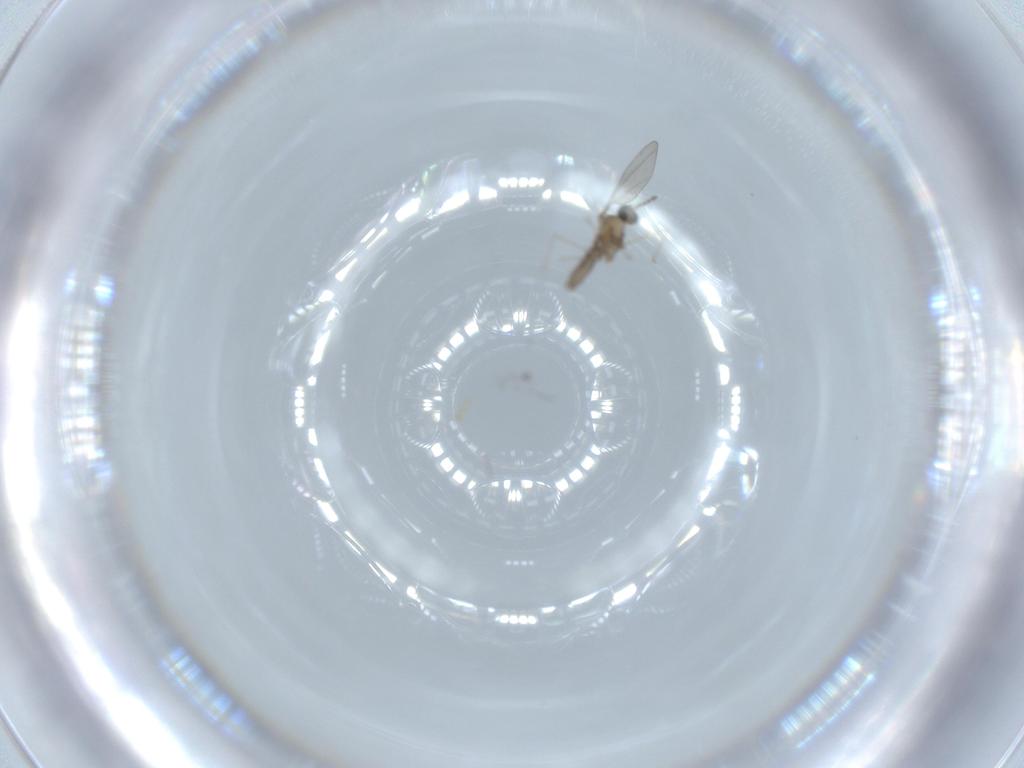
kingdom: Animalia
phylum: Arthropoda
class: Insecta
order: Diptera
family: Cecidomyiidae
